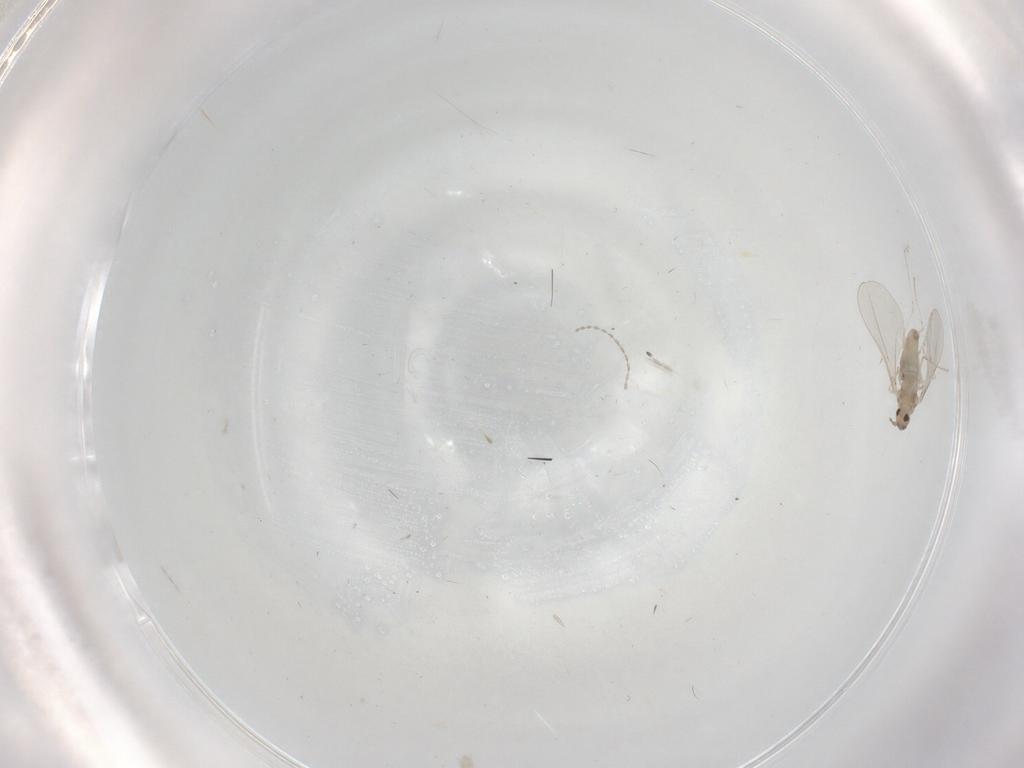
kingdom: Animalia
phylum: Arthropoda
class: Insecta
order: Diptera
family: Cecidomyiidae
